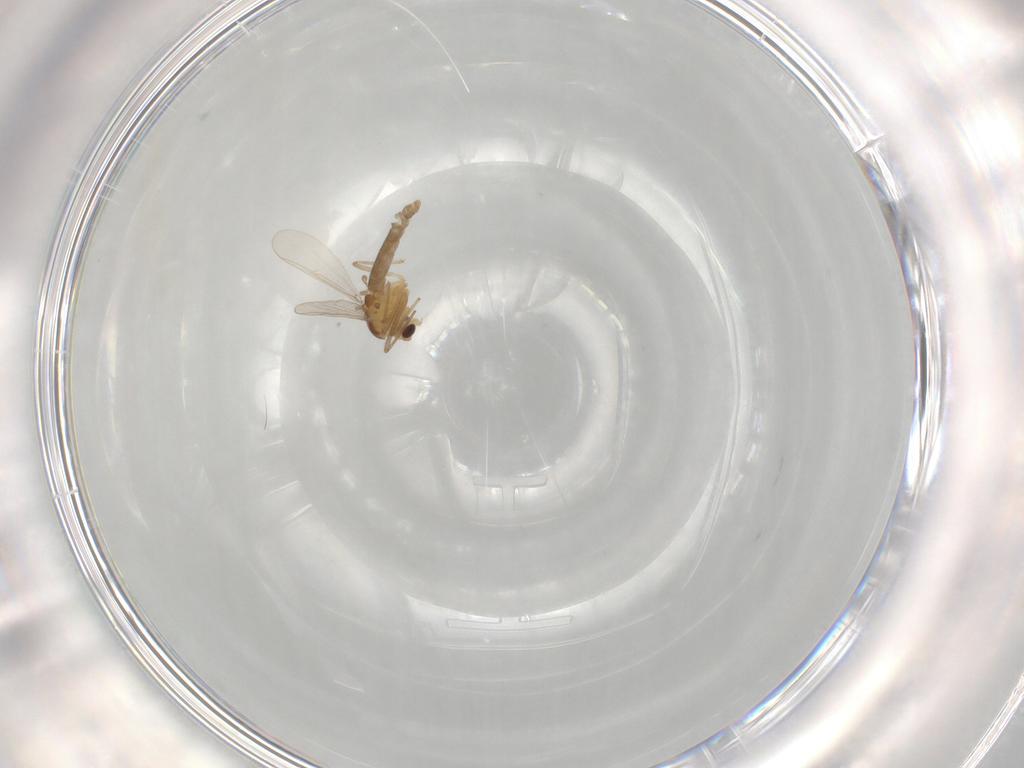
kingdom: Animalia
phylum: Arthropoda
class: Insecta
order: Diptera
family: Chironomidae
